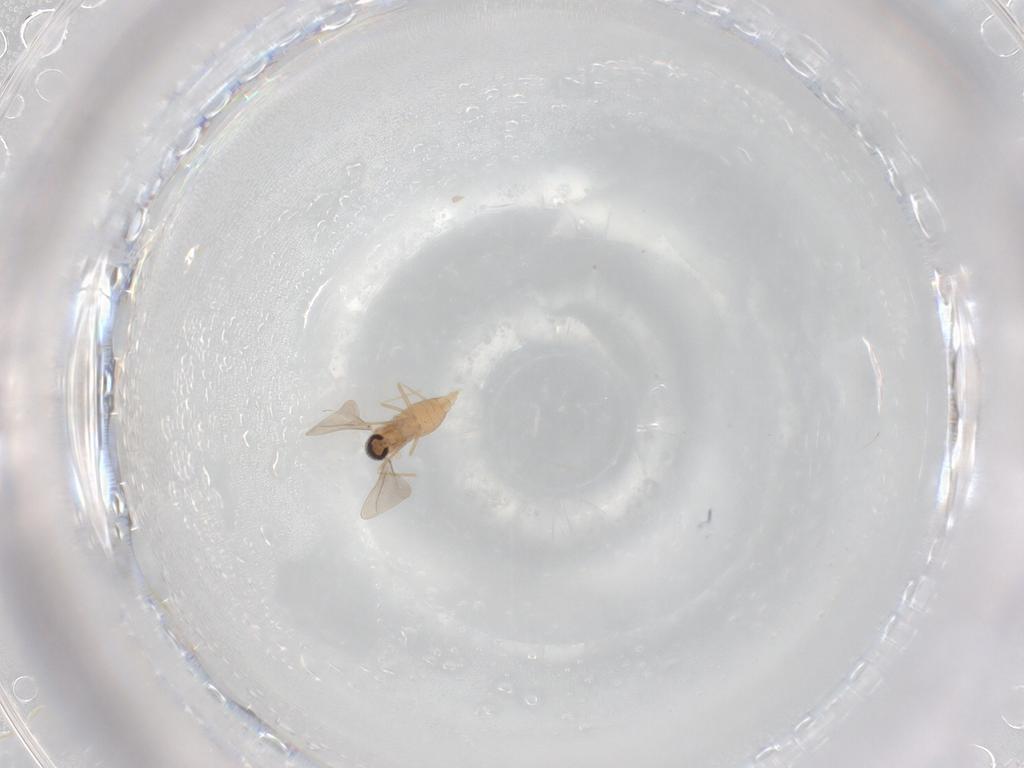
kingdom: Animalia
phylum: Arthropoda
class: Insecta
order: Diptera
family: Cecidomyiidae
